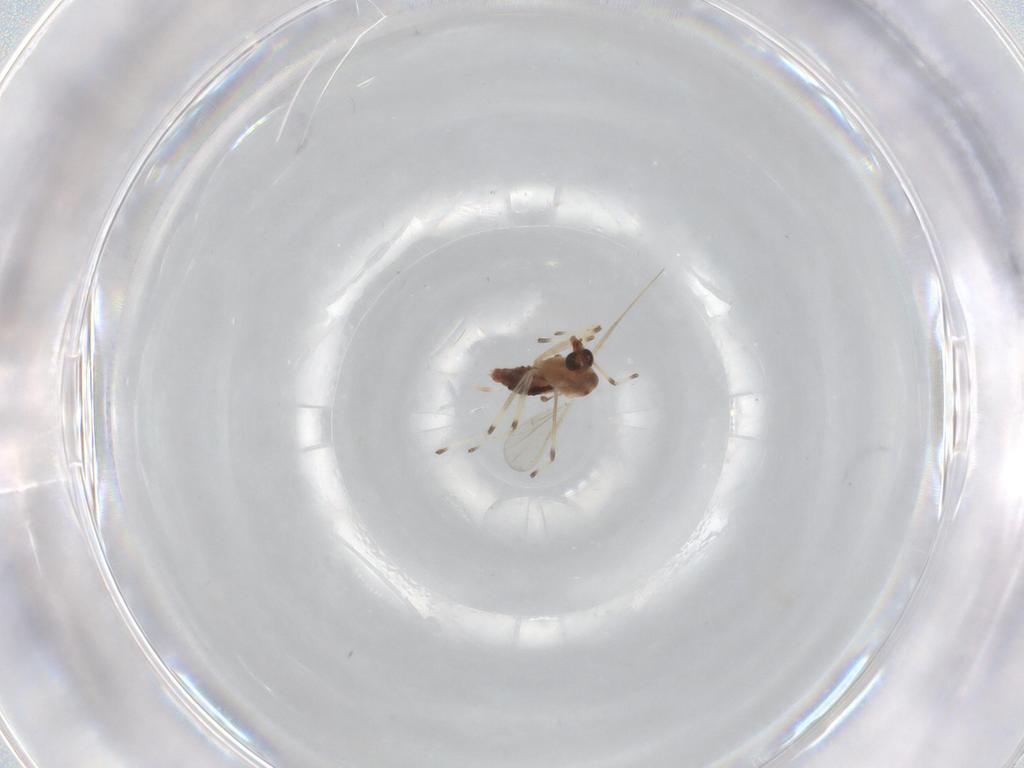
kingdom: Animalia
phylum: Arthropoda
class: Insecta
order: Diptera
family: Chironomidae
